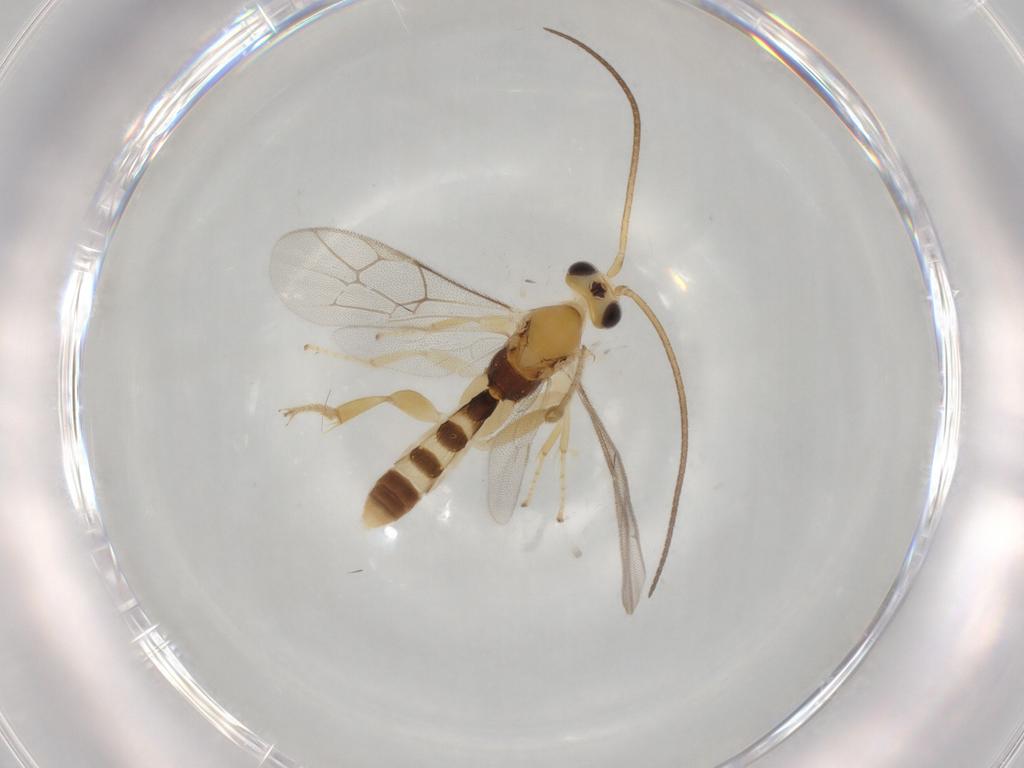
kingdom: Animalia
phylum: Arthropoda
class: Insecta
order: Hymenoptera
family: Ichneumonidae
